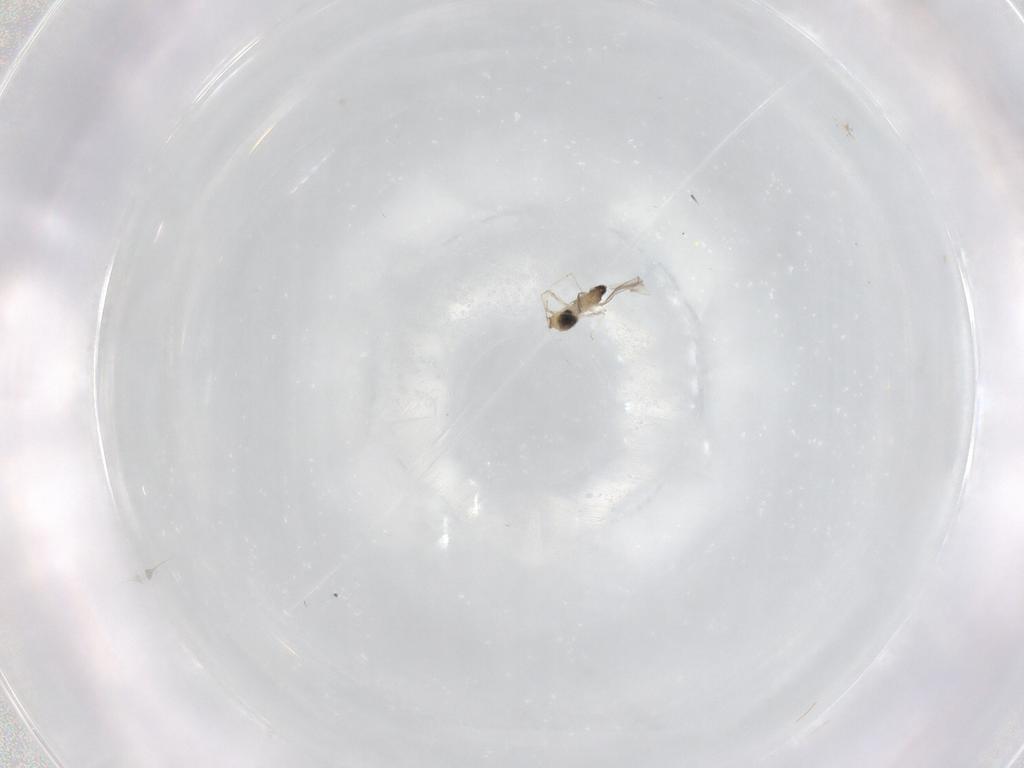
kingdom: Animalia
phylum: Arthropoda
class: Insecta
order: Diptera
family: Cecidomyiidae
